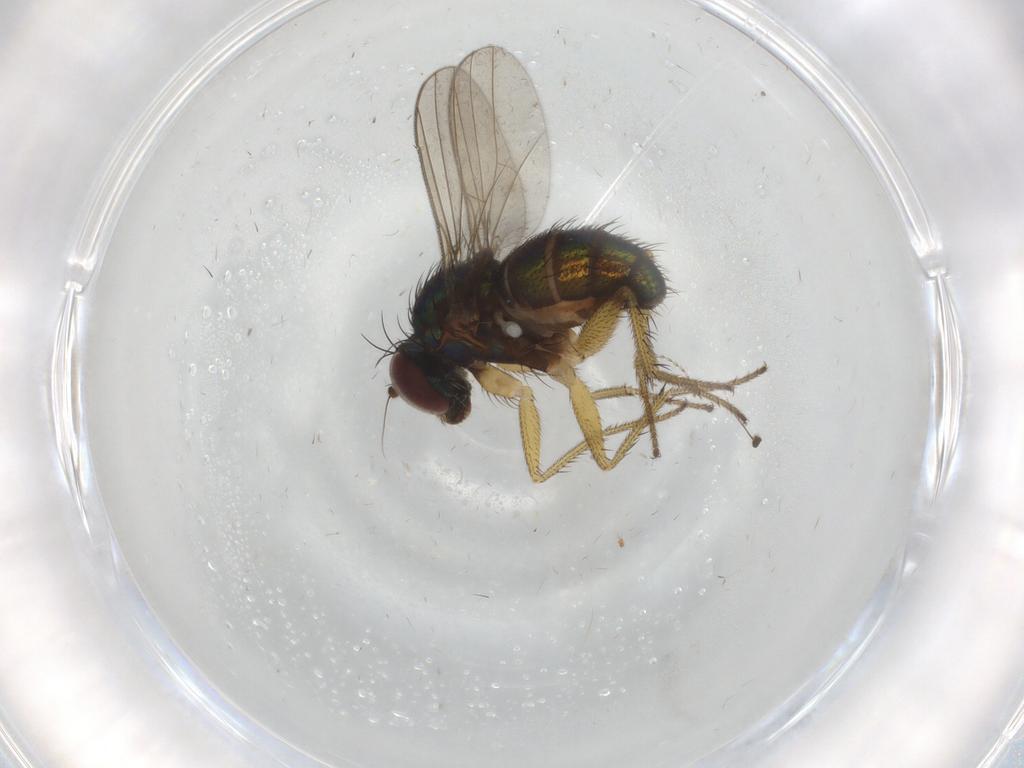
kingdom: Animalia
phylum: Arthropoda
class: Insecta
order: Diptera
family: Dolichopodidae
